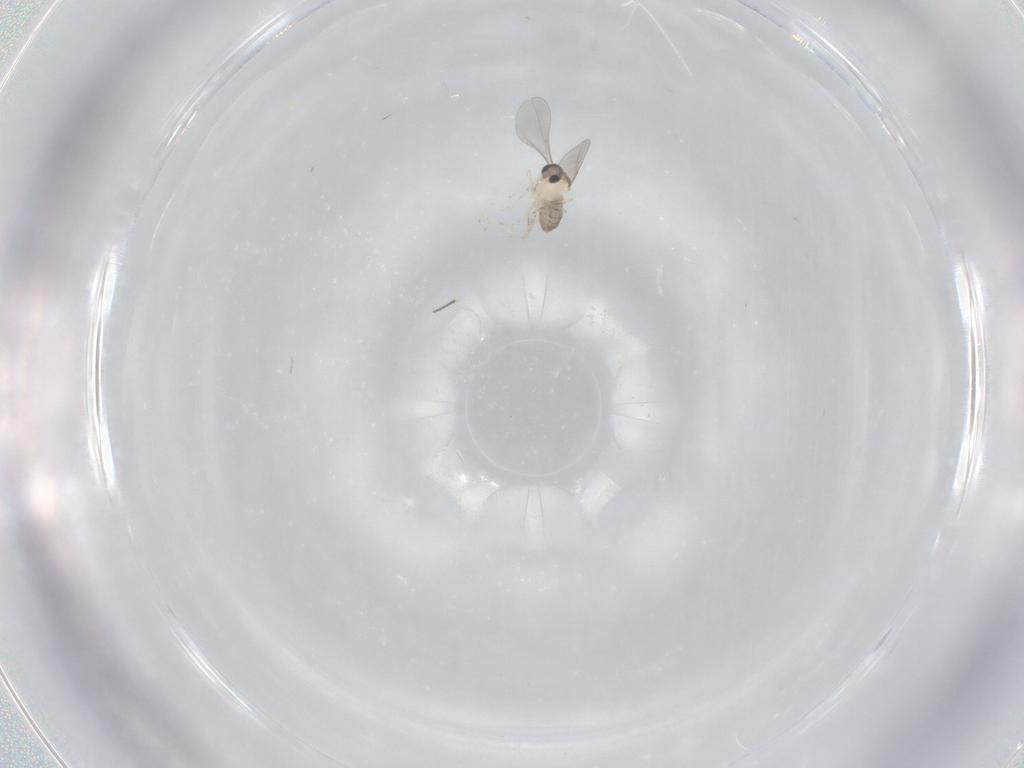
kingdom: Animalia
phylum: Arthropoda
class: Insecta
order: Diptera
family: Cecidomyiidae
